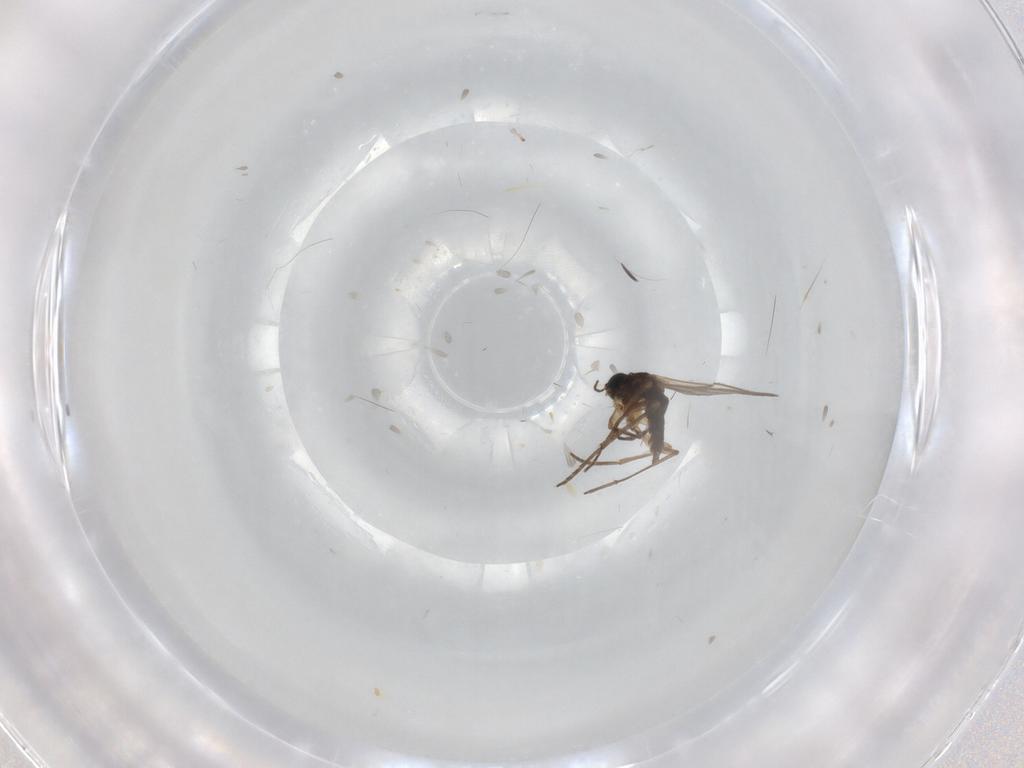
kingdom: Animalia
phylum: Arthropoda
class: Insecta
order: Diptera
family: Sciaridae
